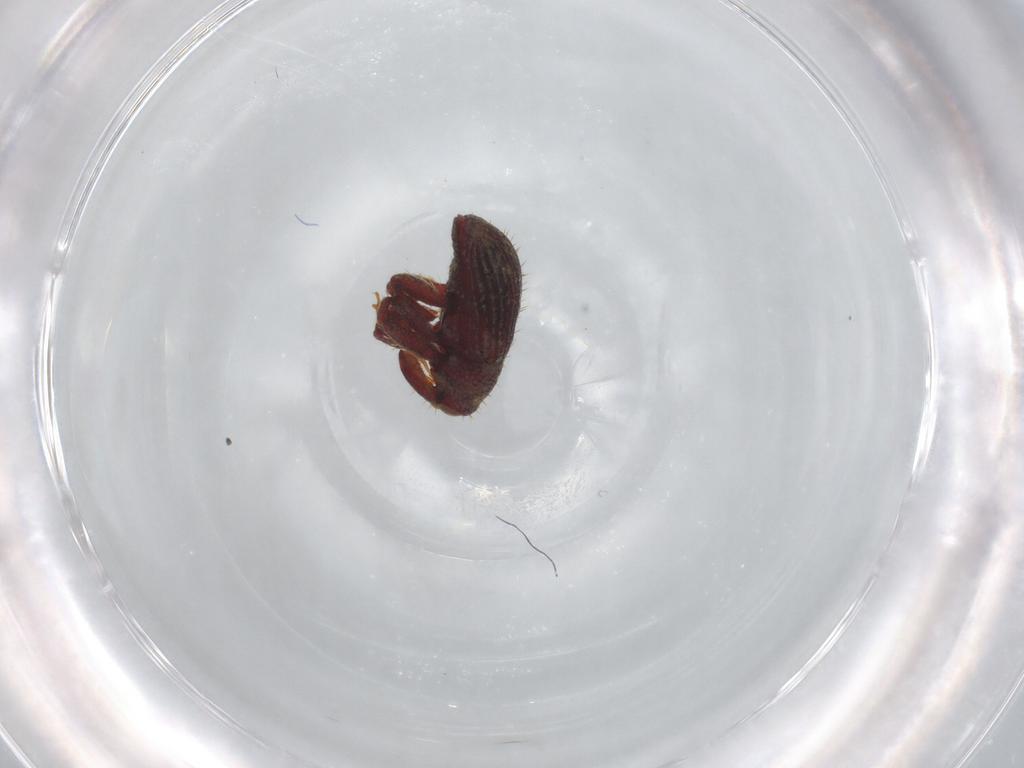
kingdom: Animalia
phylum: Arthropoda
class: Insecta
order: Coleoptera
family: Curculionidae
